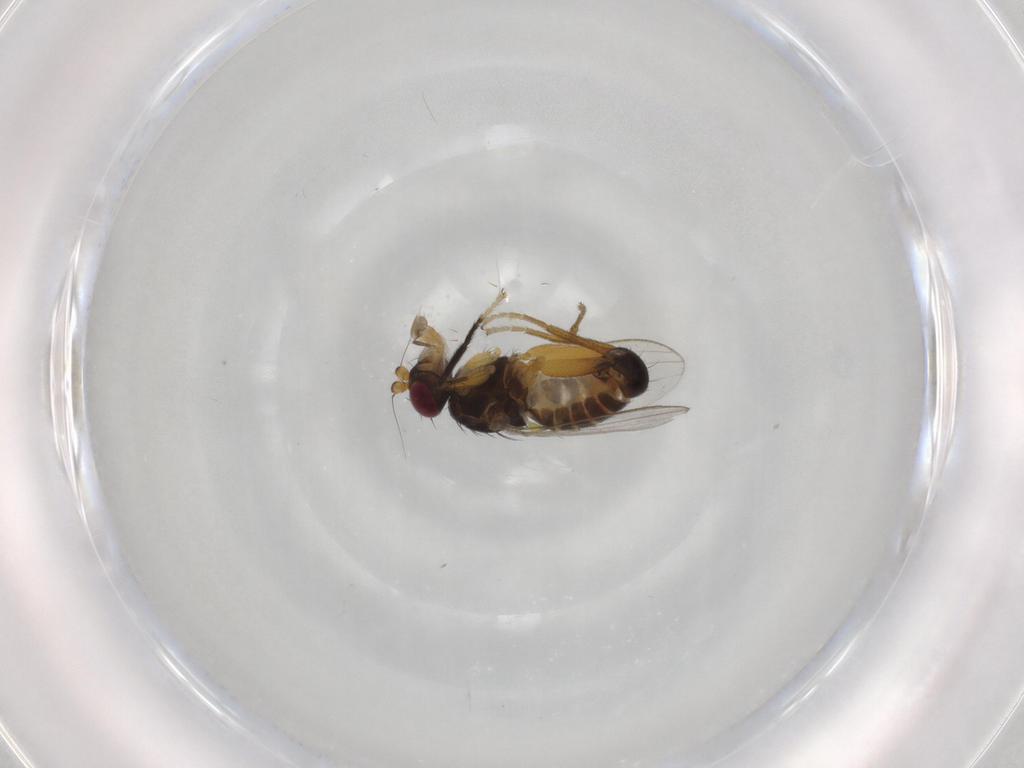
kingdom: Animalia
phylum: Arthropoda
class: Insecta
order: Diptera
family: Cypselosomatidae
